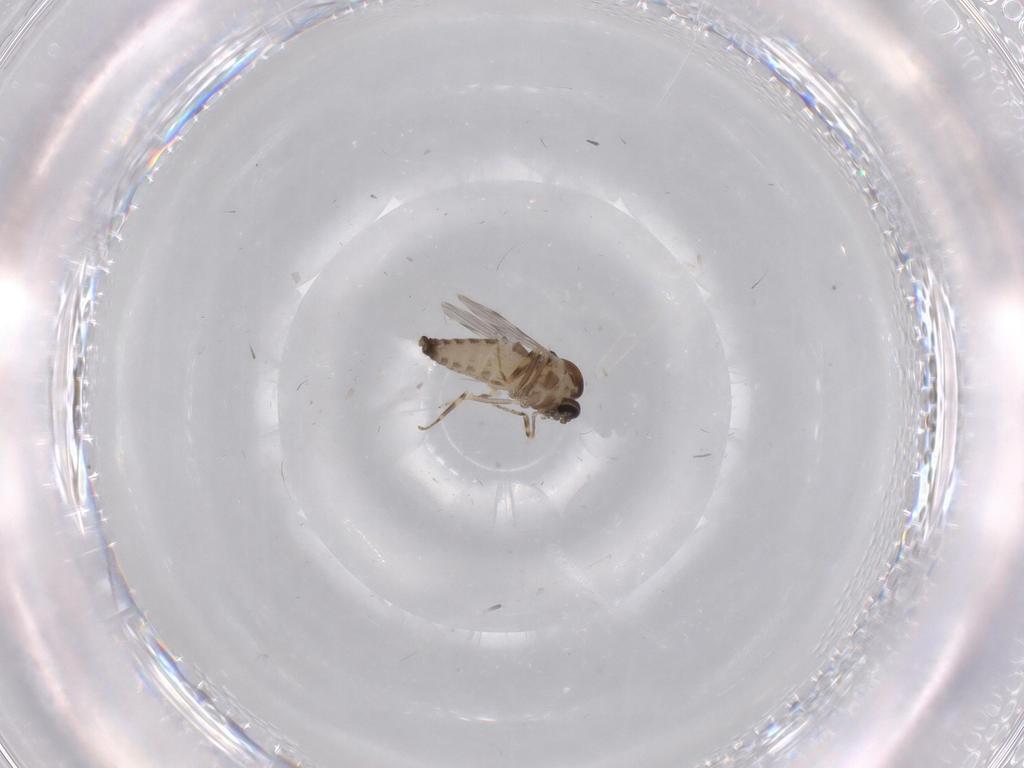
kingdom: Animalia
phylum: Arthropoda
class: Insecta
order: Diptera
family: Ceratopogonidae
